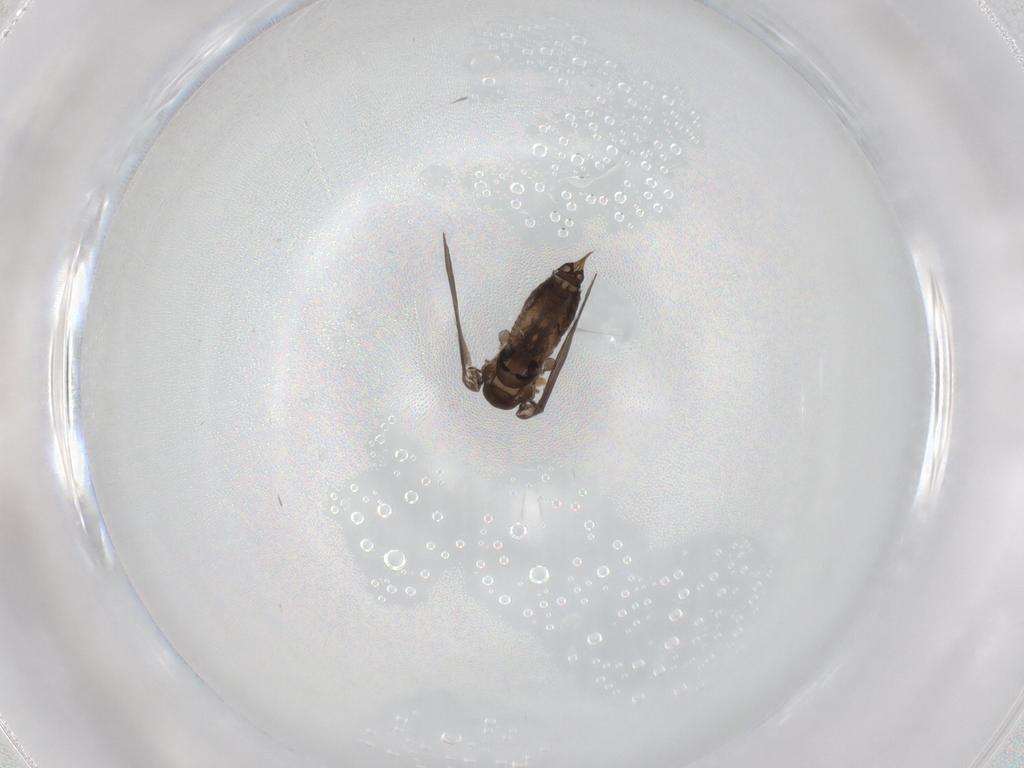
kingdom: Animalia
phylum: Arthropoda
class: Insecta
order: Diptera
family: Psychodidae
